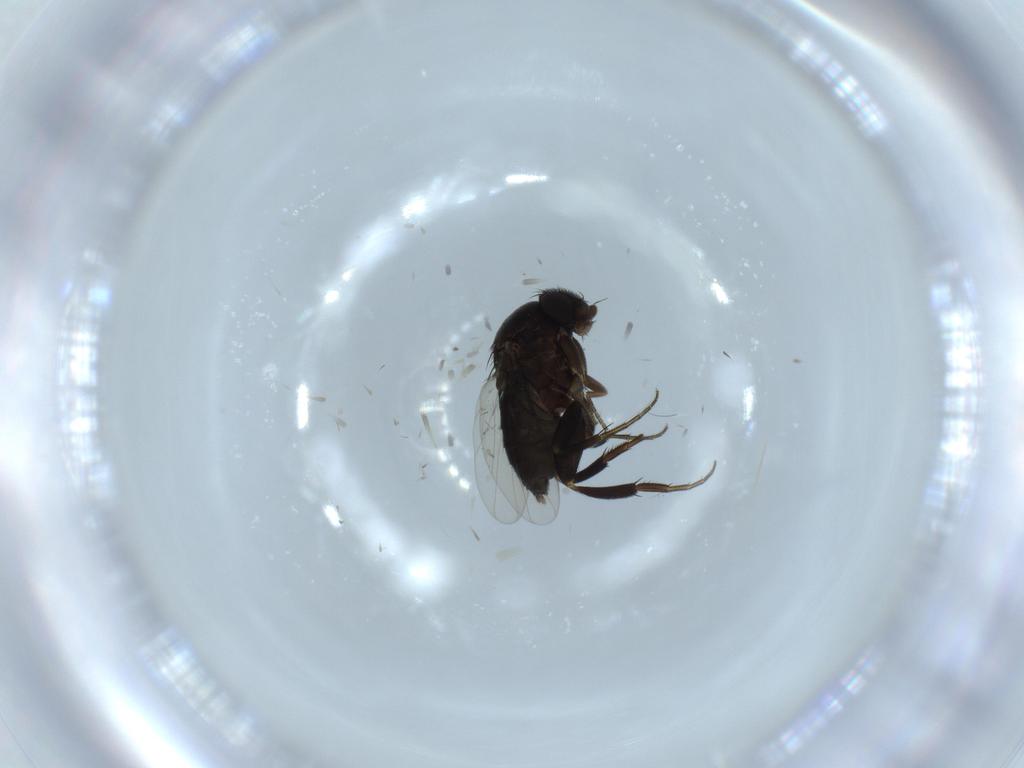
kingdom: Animalia
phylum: Arthropoda
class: Insecta
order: Diptera
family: Phoridae
